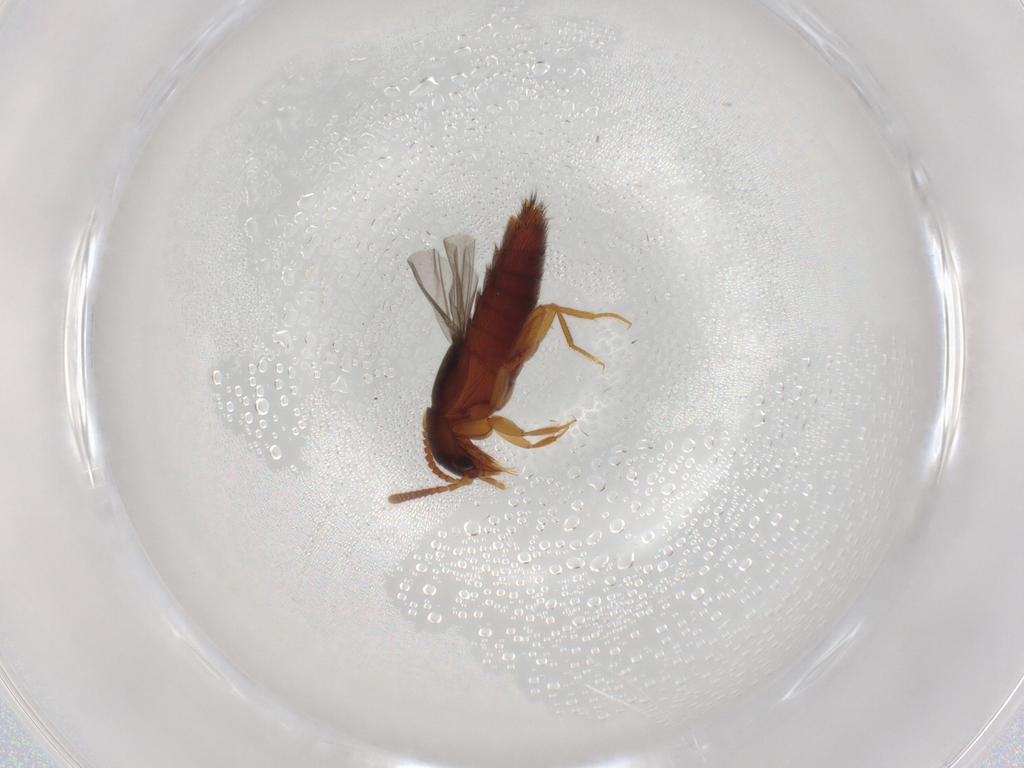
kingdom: Animalia
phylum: Arthropoda
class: Insecta
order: Coleoptera
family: Staphylinidae
